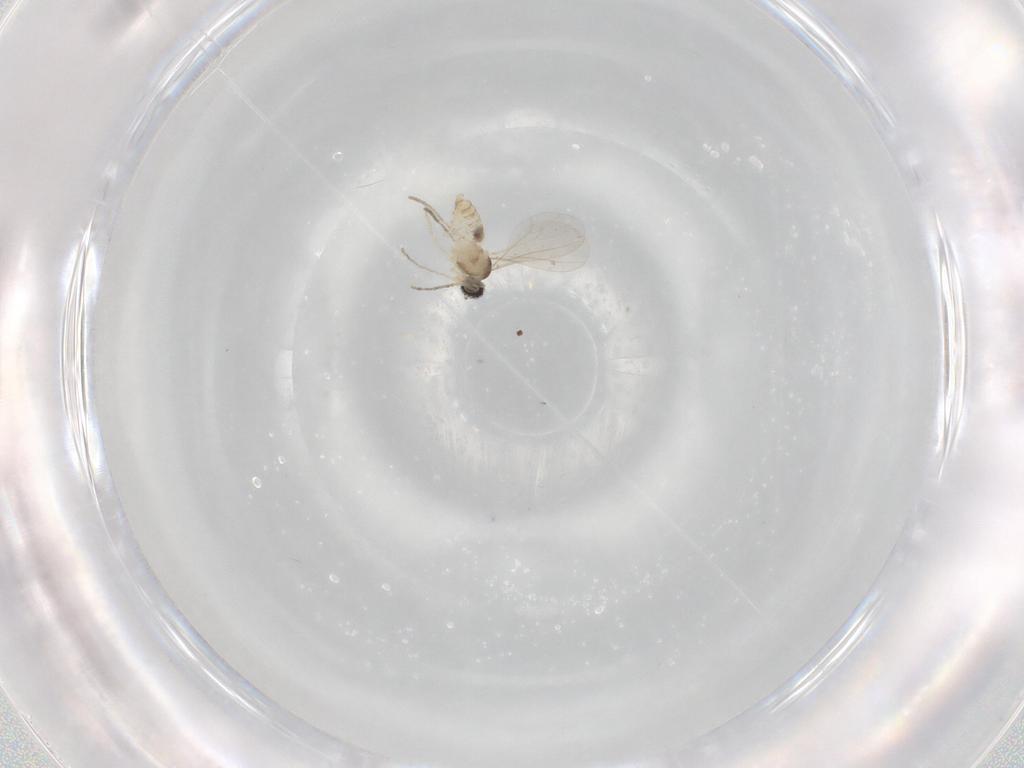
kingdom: Animalia
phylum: Arthropoda
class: Insecta
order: Diptera
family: Cecidomyiidae
